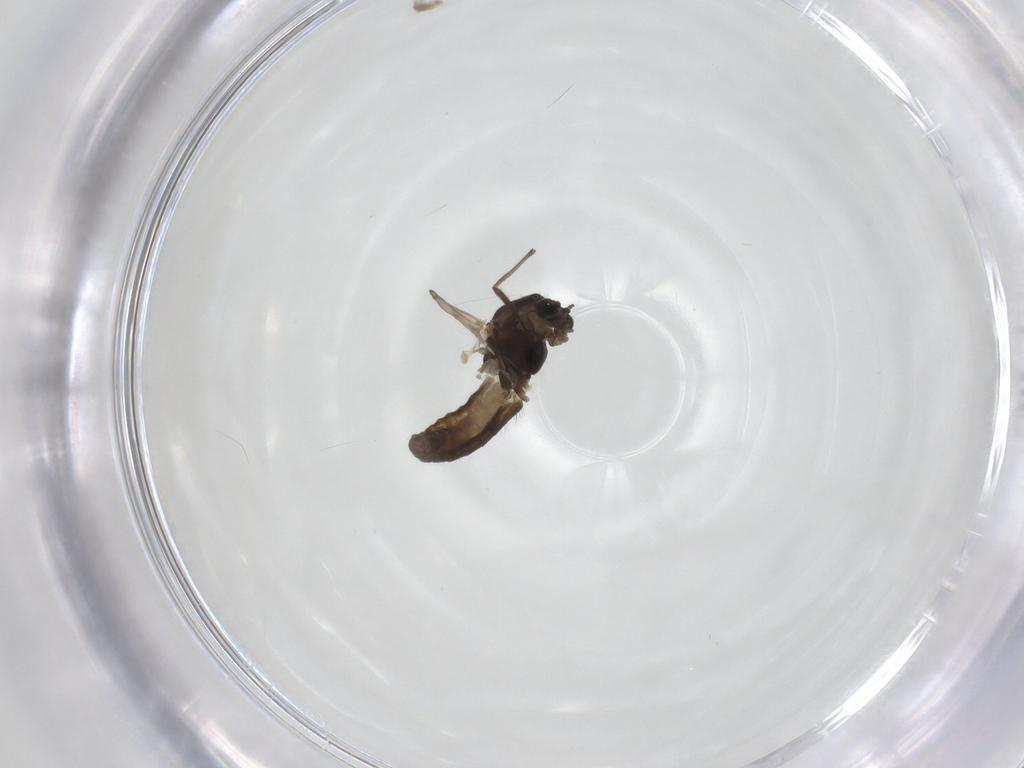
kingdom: Animalia
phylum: Arthropoda
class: Insecta
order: Diptera
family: Chironomidae
